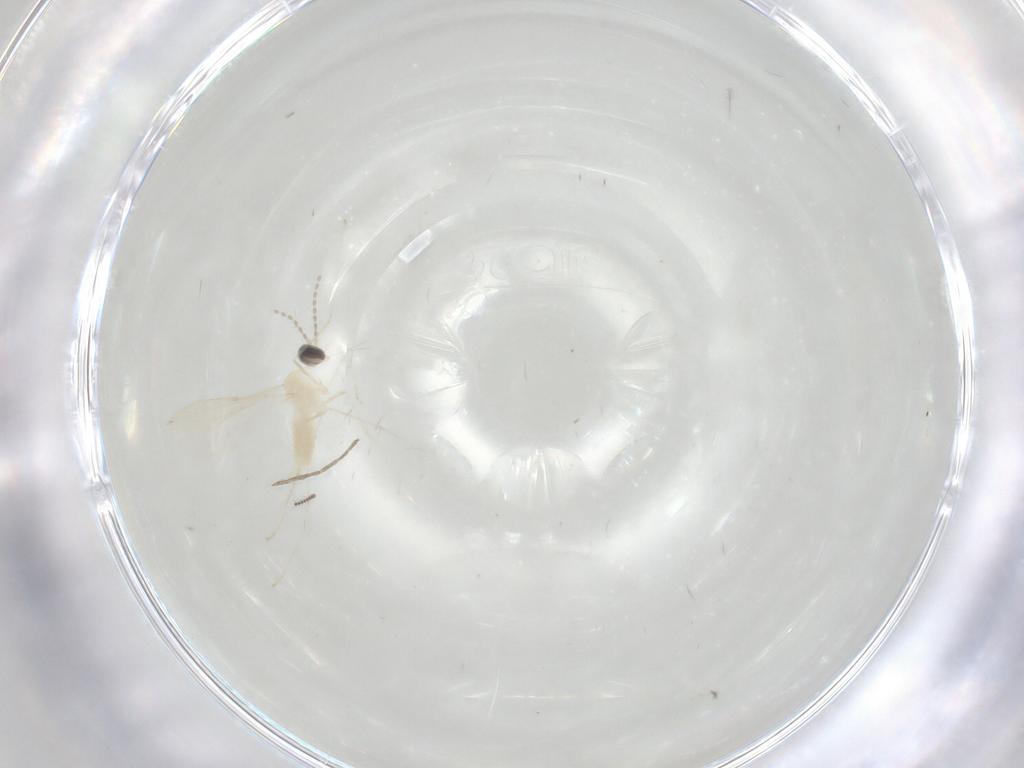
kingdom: Animalia
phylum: Arthropoda
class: Insecta
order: Diptera
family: Cecidomyiidae
